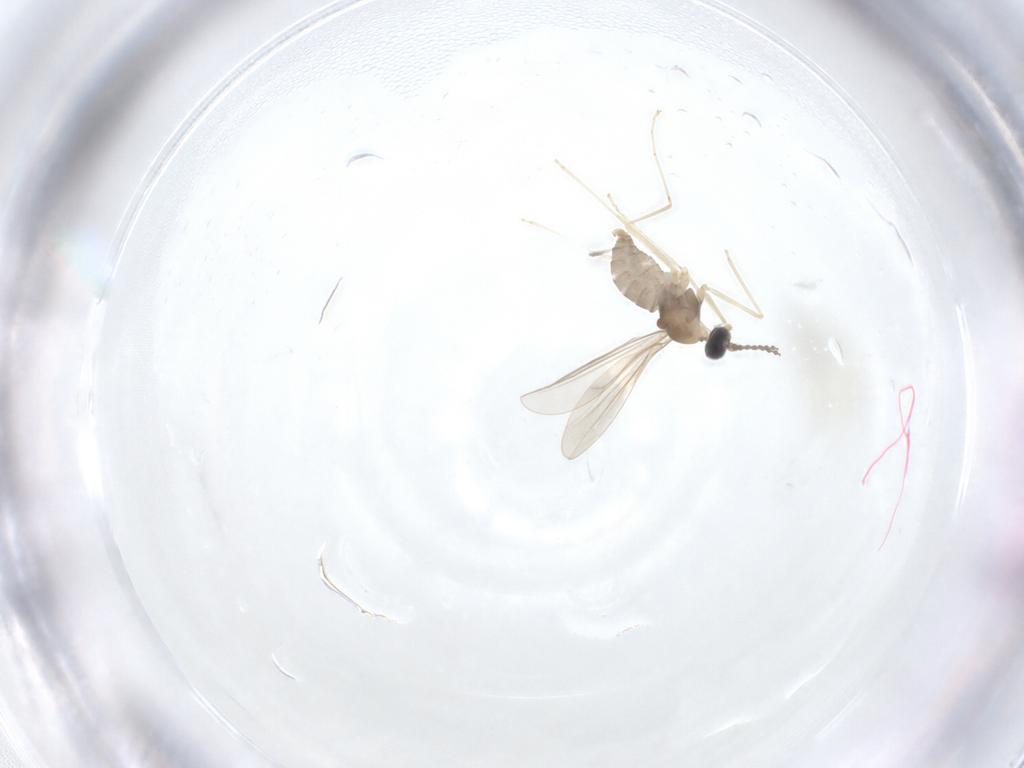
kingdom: Animalia
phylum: Arthropoda
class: Insecta
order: Diptera
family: Cecidomyiidae
